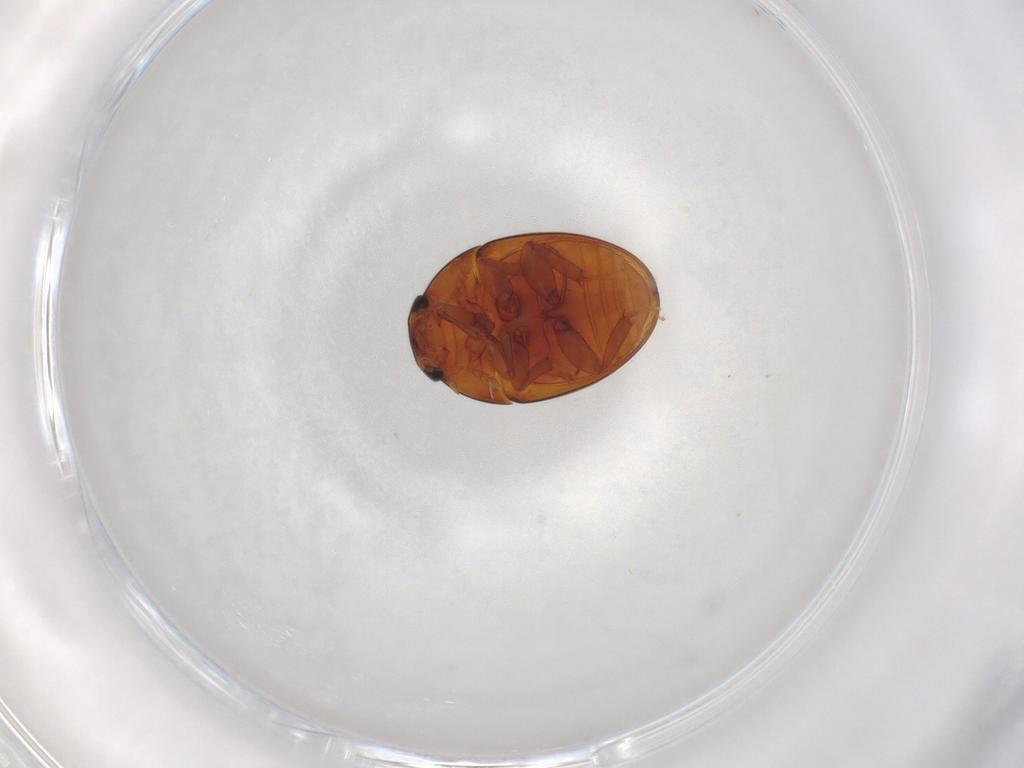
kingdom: Animalia
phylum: Arthropoda
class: Insecta
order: Coleoptera
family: Phalacridae
